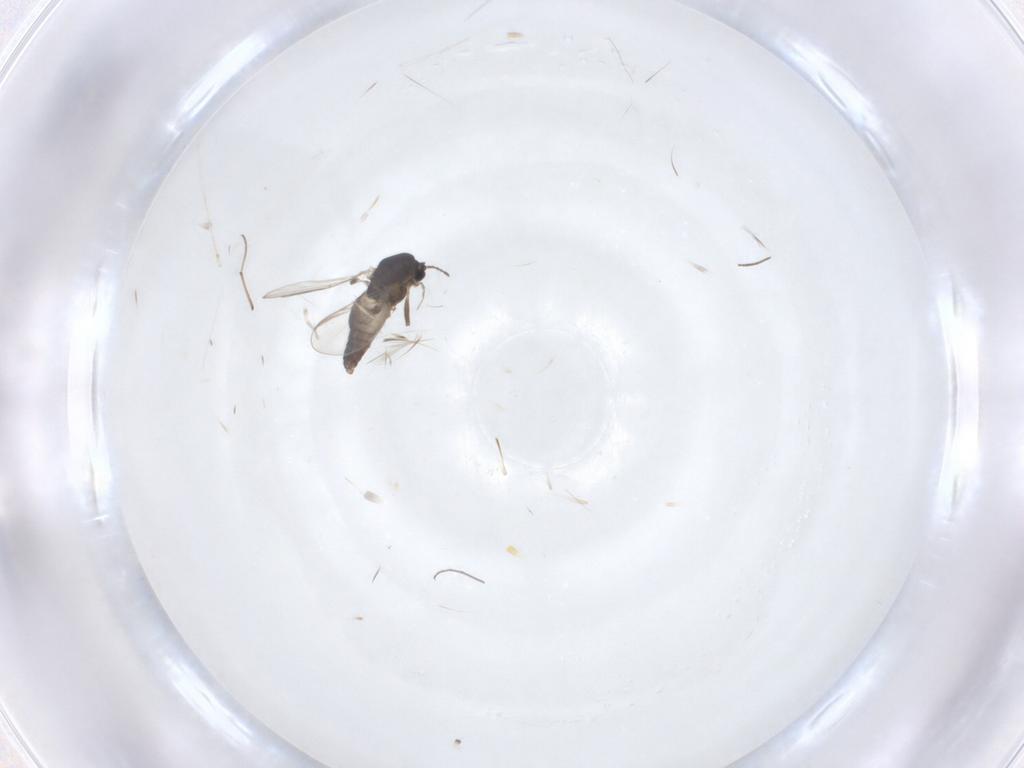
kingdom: Animalia
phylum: Arthropoda
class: Insecta
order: Diptera
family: Chironomidae
